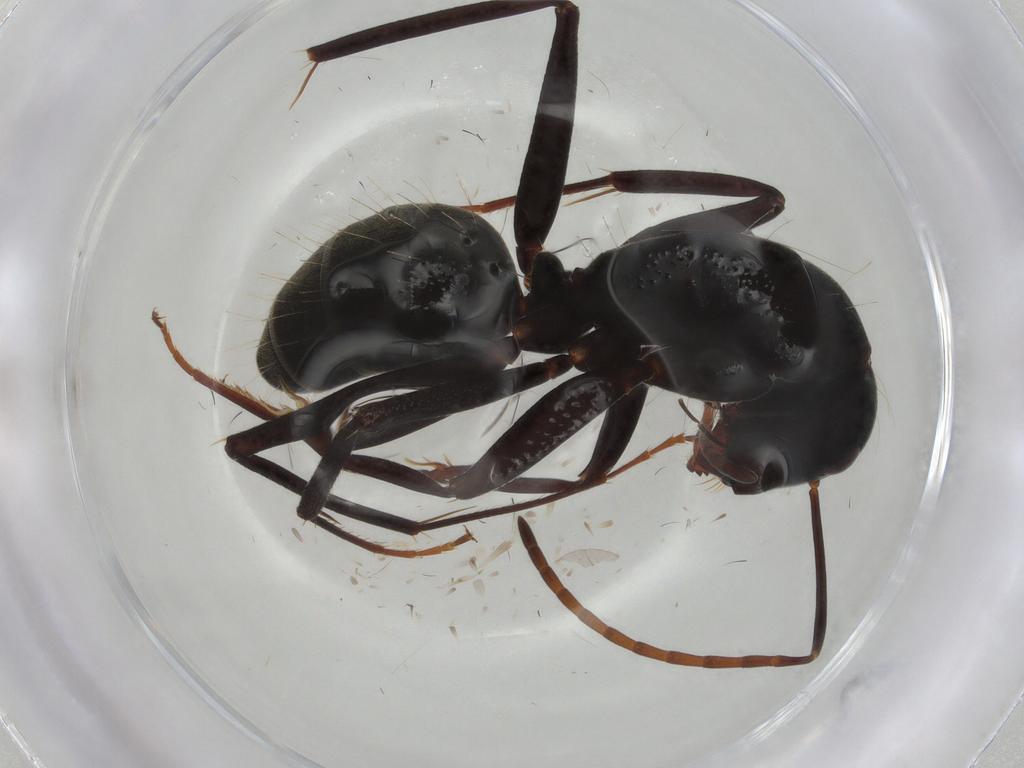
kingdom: Animalia
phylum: Arthropoda
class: Insecta
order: Hymenoptera
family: Formicidae
